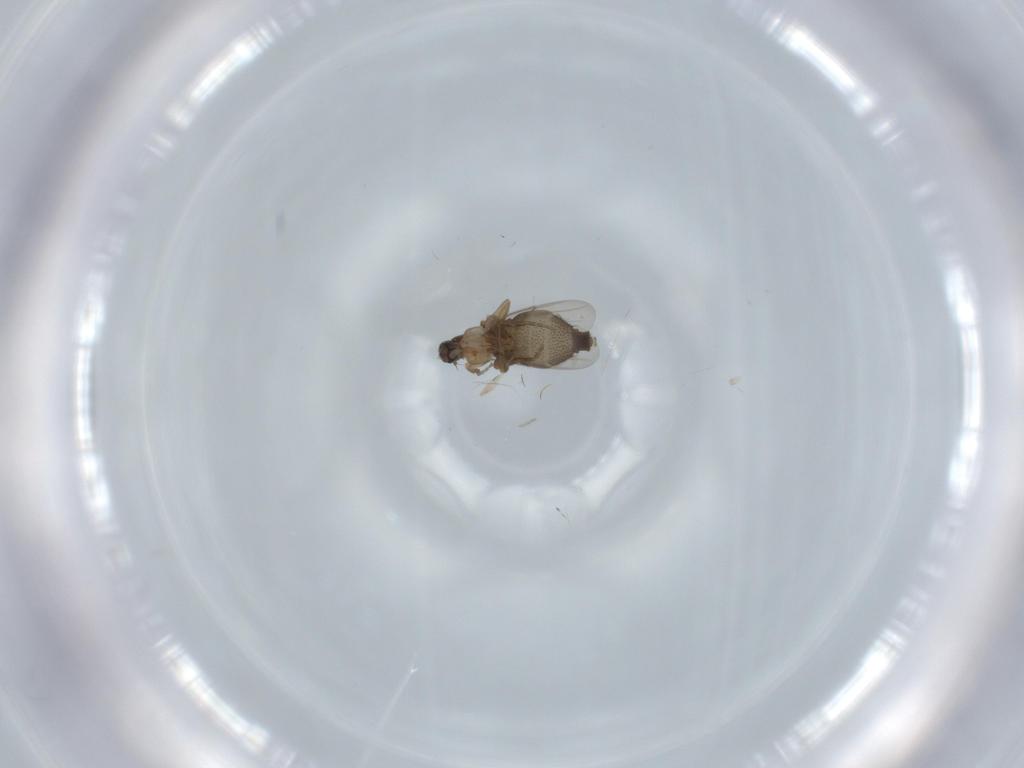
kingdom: Animalia
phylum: Arthropoda
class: Insecta
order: Diptera
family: Phoridae
